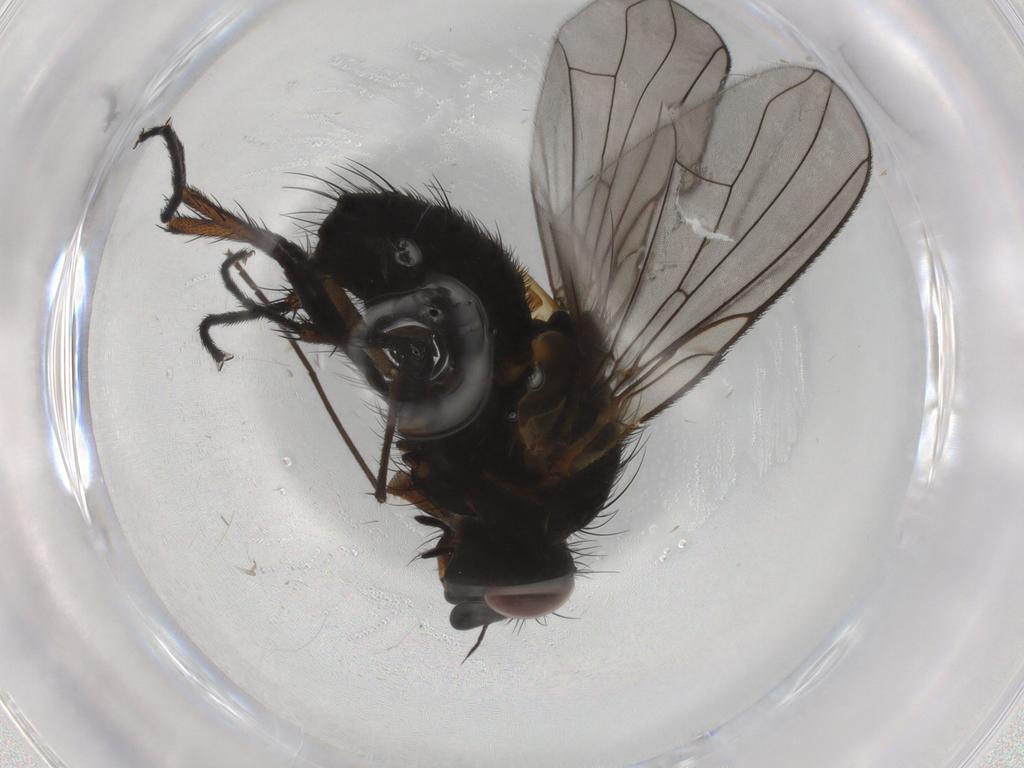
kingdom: Animalia
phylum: Arthropoda
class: Insecta
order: Diptera
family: Tachinidae
